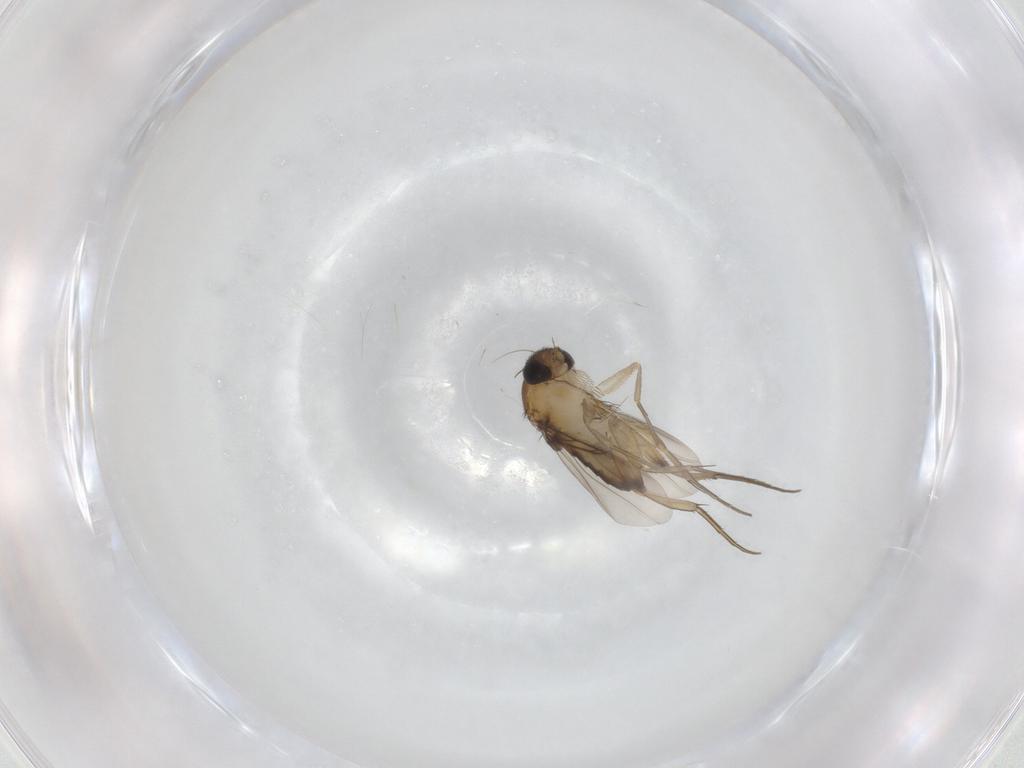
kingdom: Animalia
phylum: Arthropoda
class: Insecta
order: Diptera
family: Phoridae
